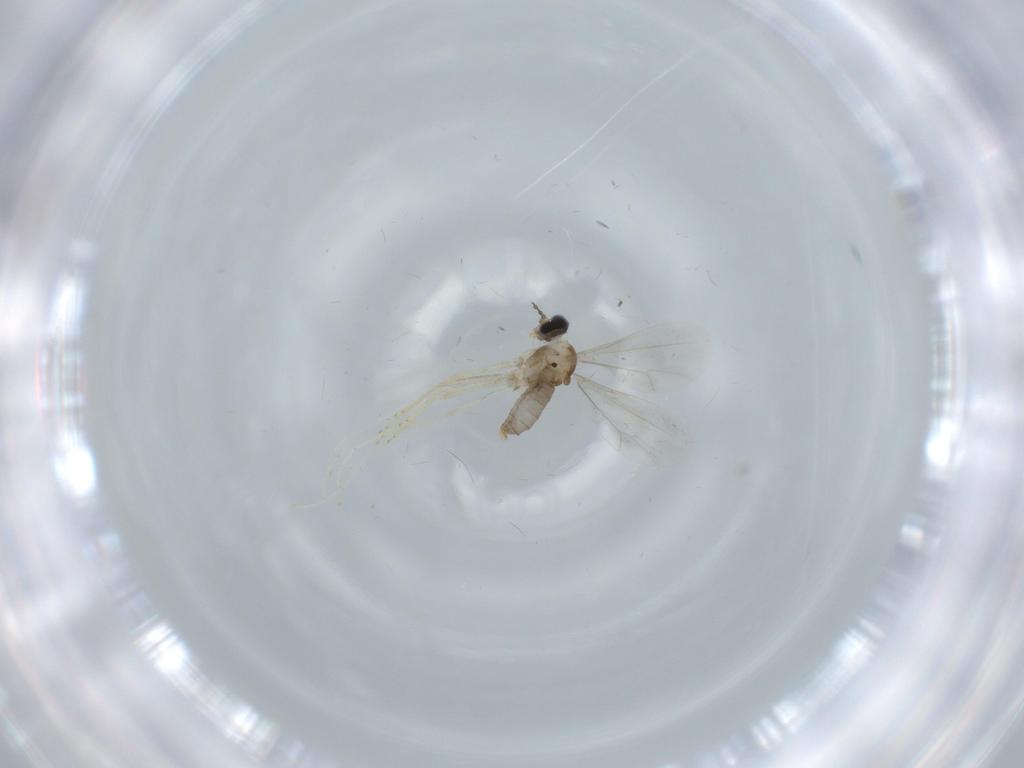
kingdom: Animalia
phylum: Arthropoda
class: Insecta
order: Diptera
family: Cecidomyiidae
